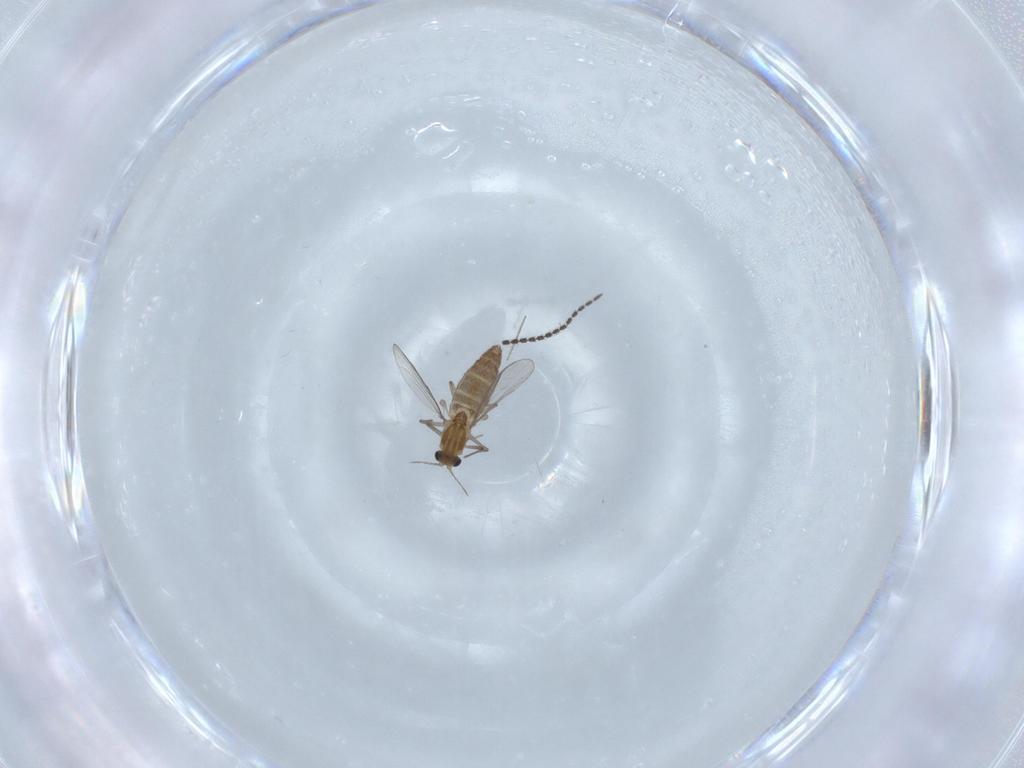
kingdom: Animalia
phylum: Arthropoda
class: Insecta
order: Diptera
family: Chironomidae
